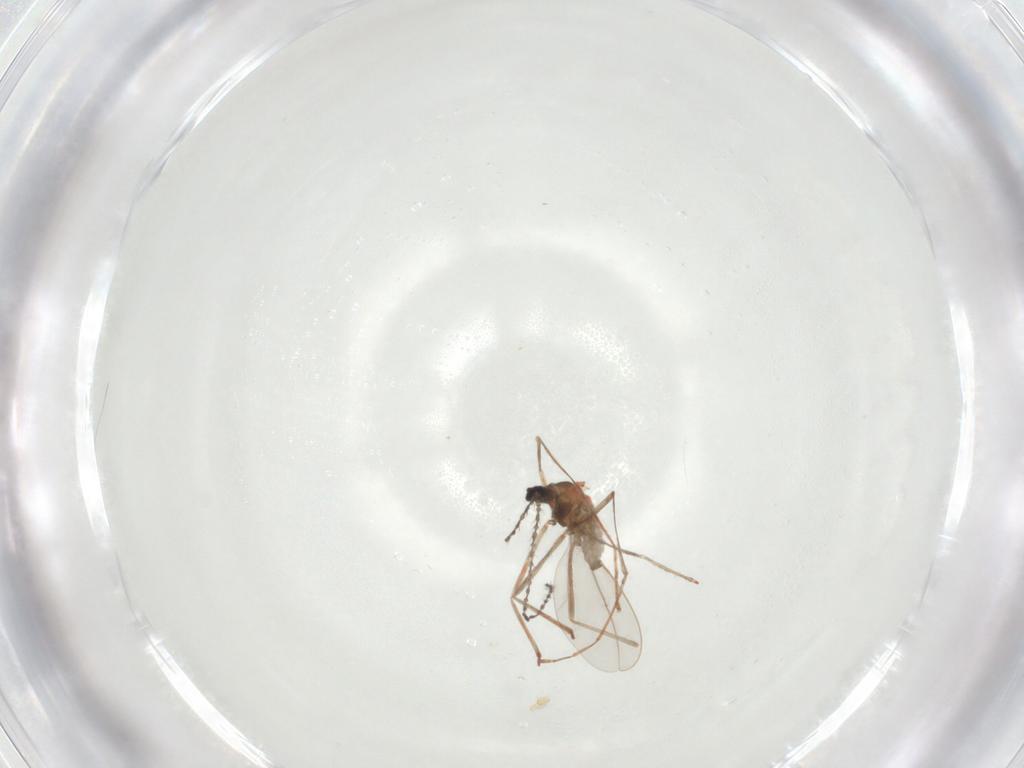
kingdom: Animalia
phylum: Arthropoda
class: Insecta
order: Diptera
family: Cecidomyiidae
